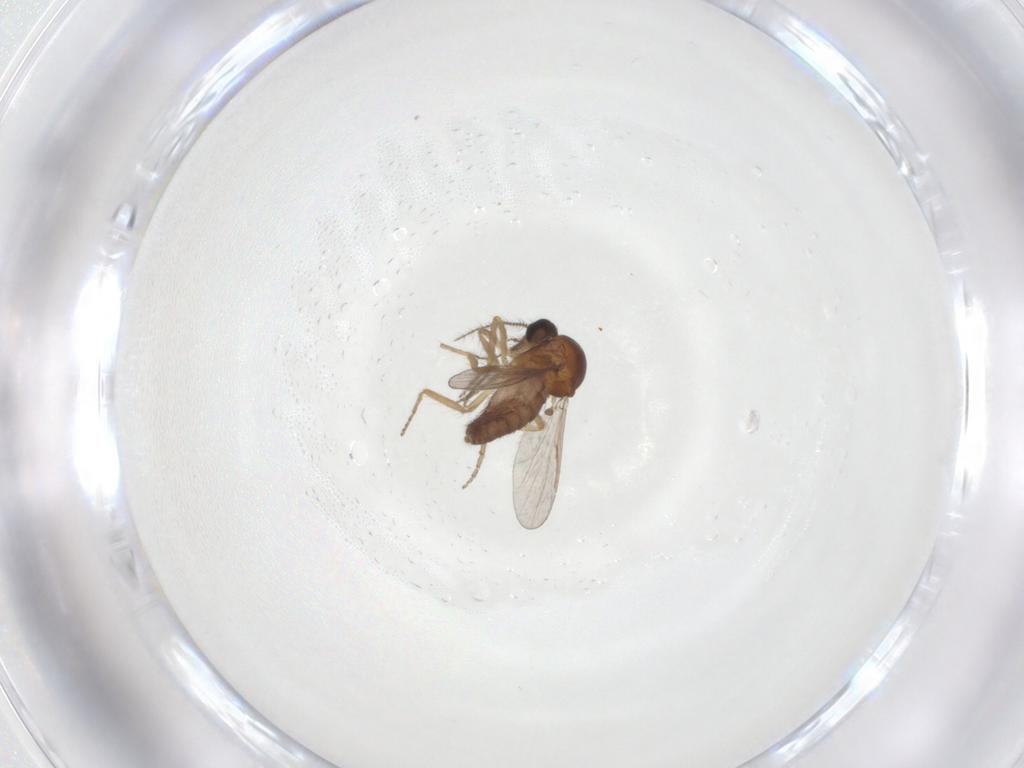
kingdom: Animalia
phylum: Arthropoda
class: Insecta
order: Diptera
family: Ceratopogonidae
